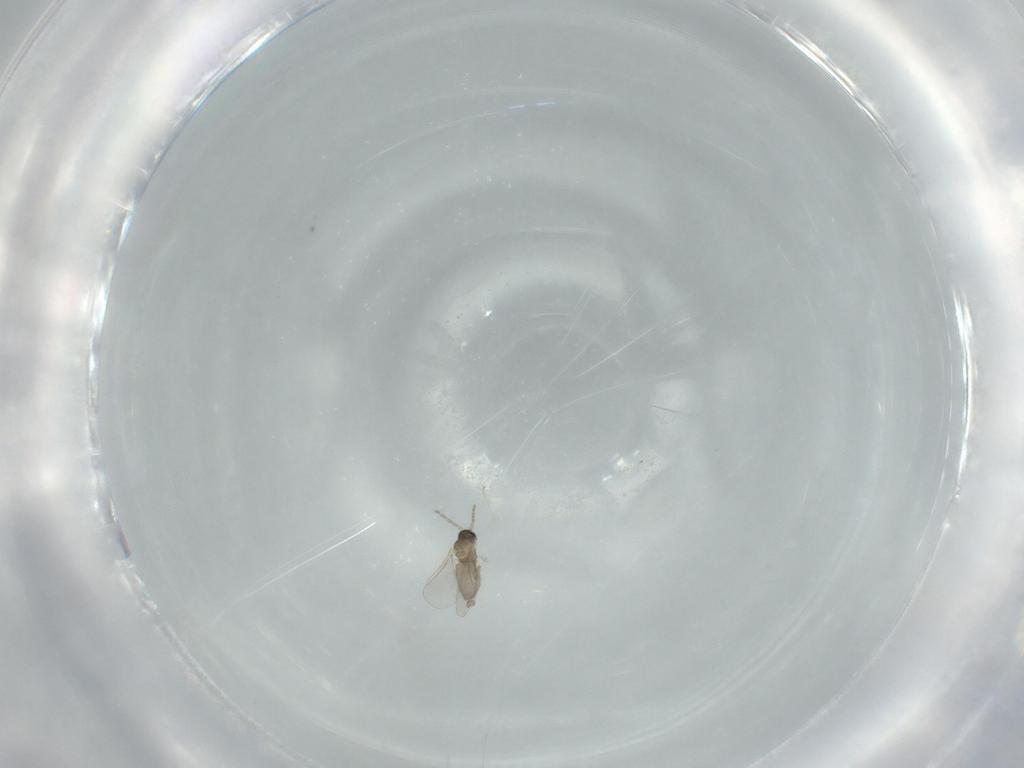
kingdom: Animalia
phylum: Arthropoda
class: Insecta
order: Diptera
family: Cecidomyiidae
